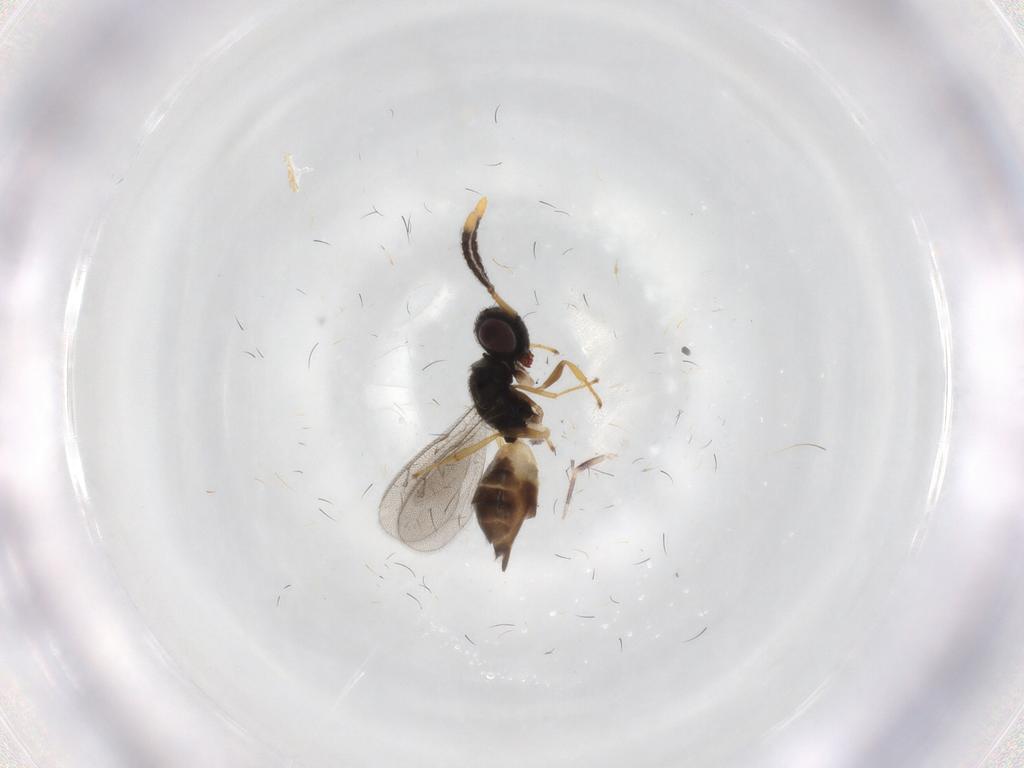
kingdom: Animalia
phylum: Arthropoda
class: Insecta
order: Hymenoptera
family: Pteromalidae
